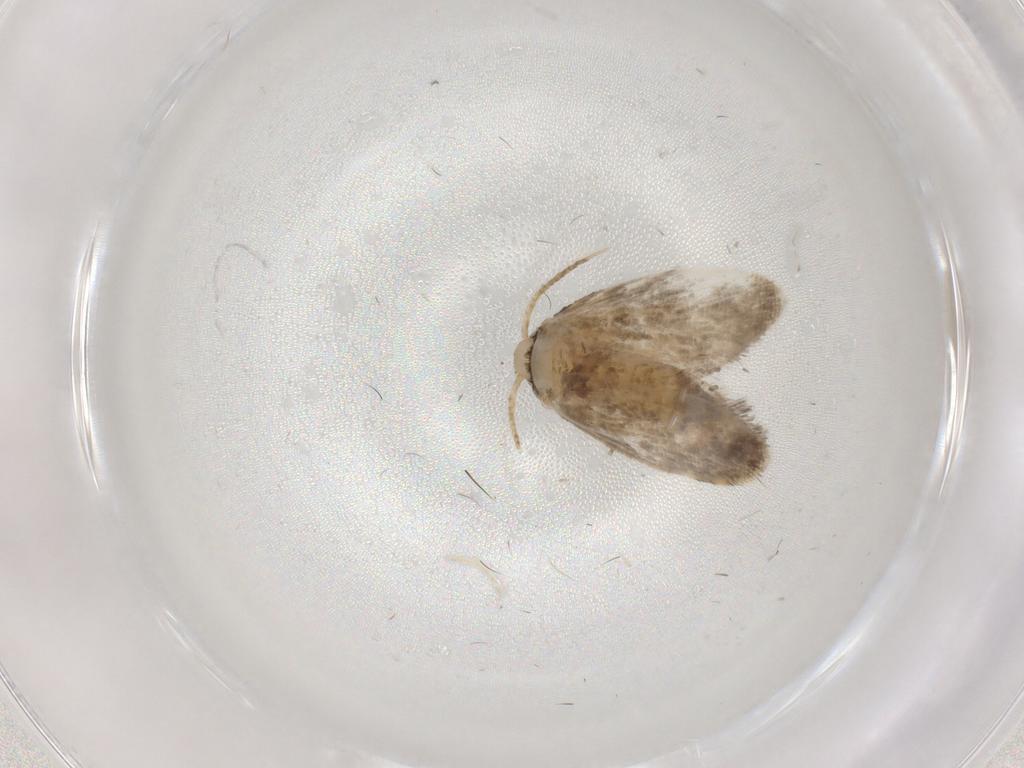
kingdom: Animalia
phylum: Arthropoda
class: Insecta
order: Lepidoptera
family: Psychidae
